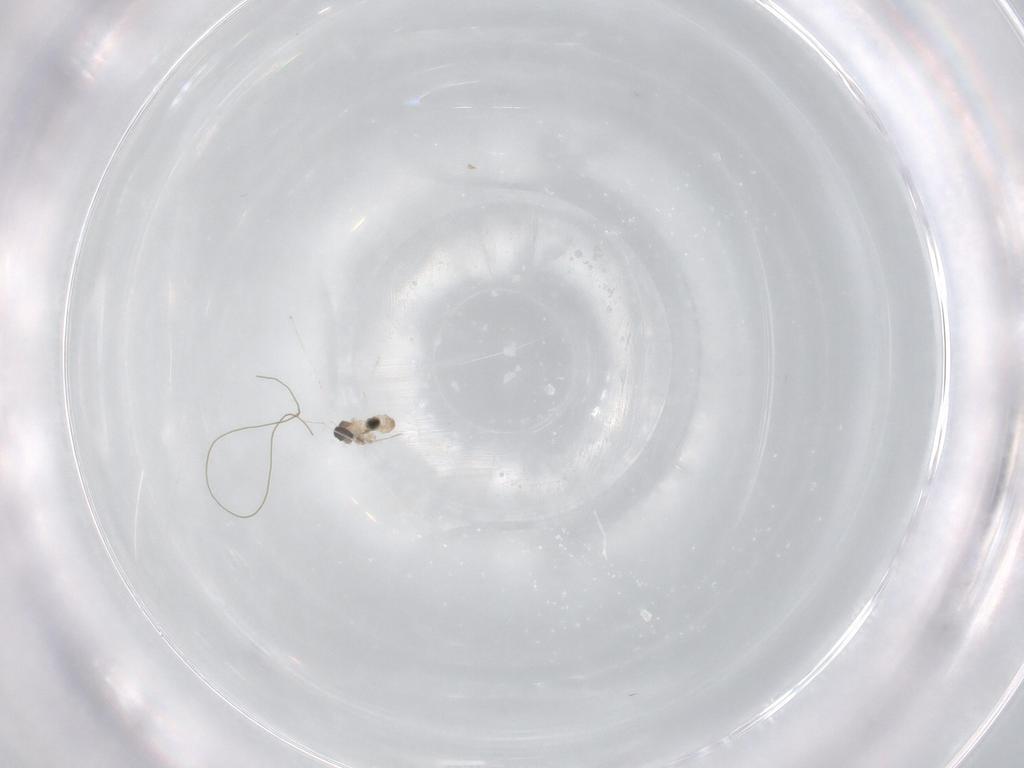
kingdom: Animalia
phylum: Arthropoda
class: Insecta
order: Diptera
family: Cecidomyiidae
